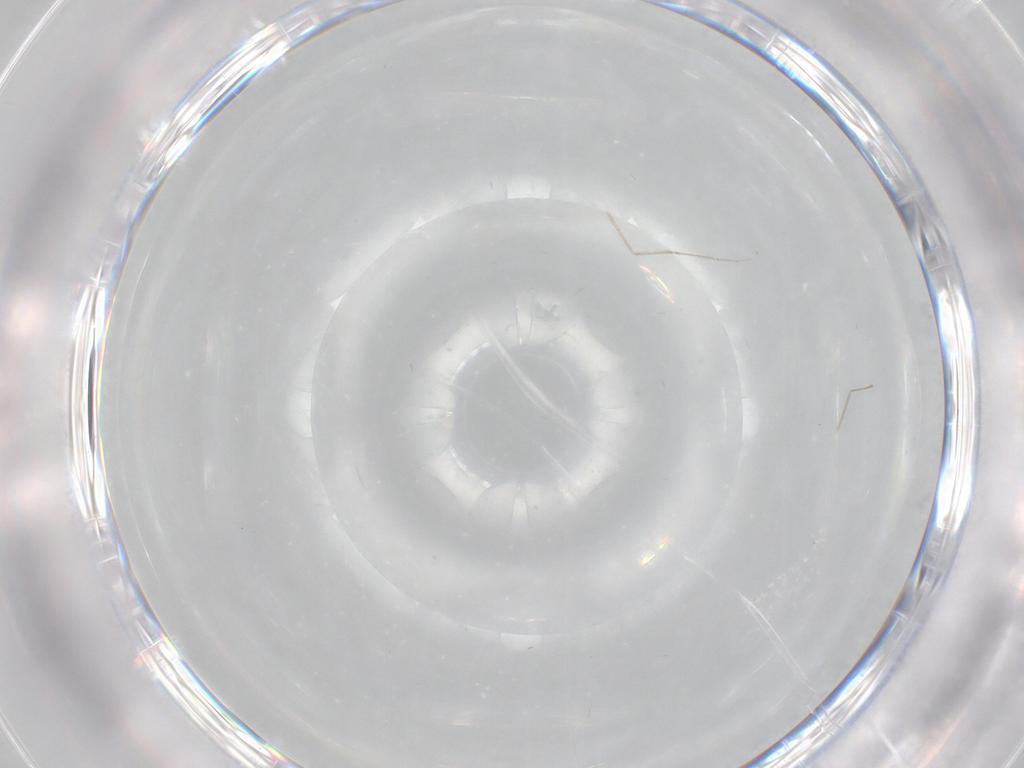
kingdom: Animalia
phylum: Arthropoda
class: Insecta
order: Diptera
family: Cecidomyiidae
